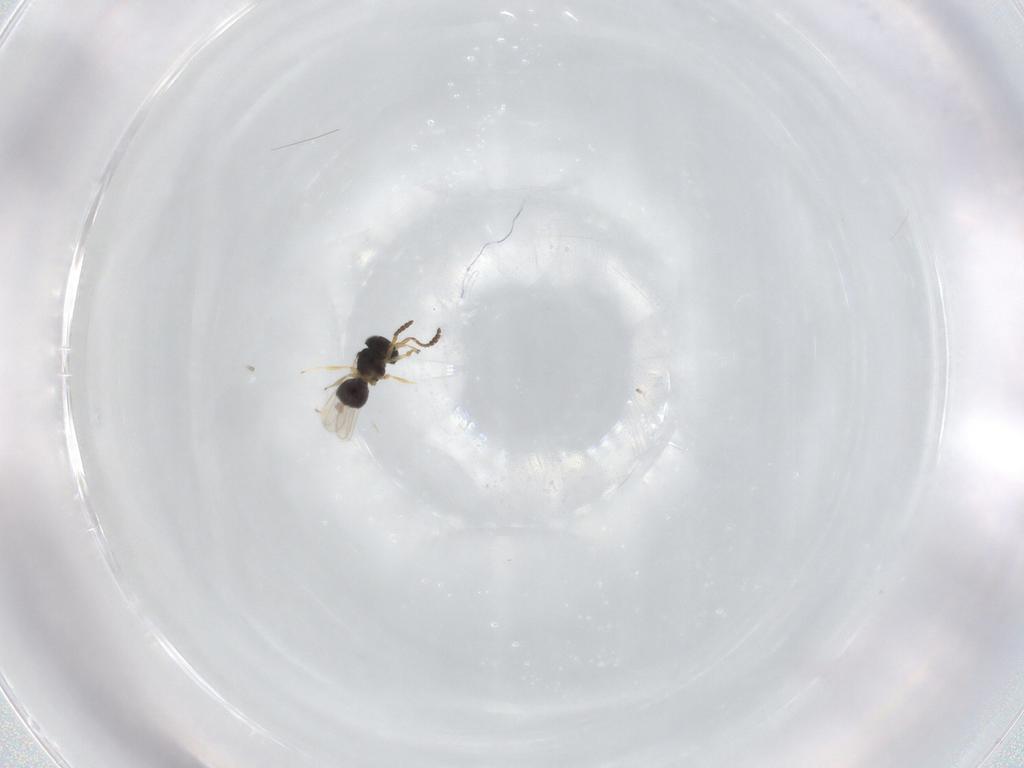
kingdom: Animalia
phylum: Arthropoda
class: Insecta
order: Hymenoptera
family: Scelionidae
